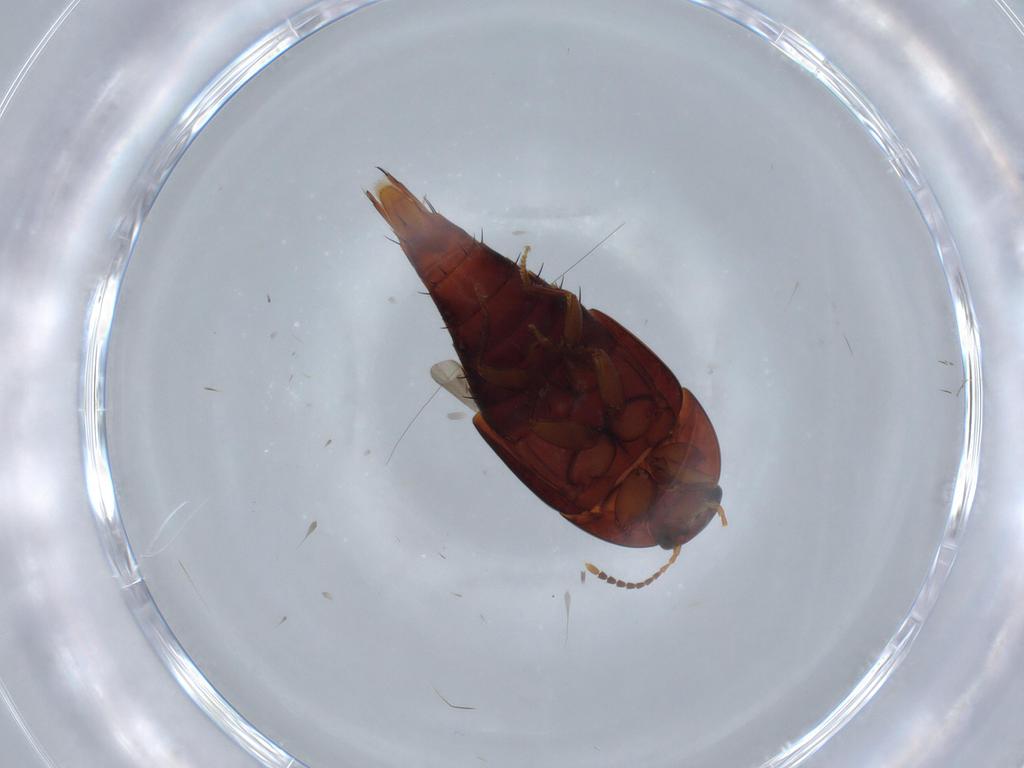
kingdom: Animalia
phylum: Arthropoda
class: Insecta
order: Coleoptera
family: Staphylinidae
